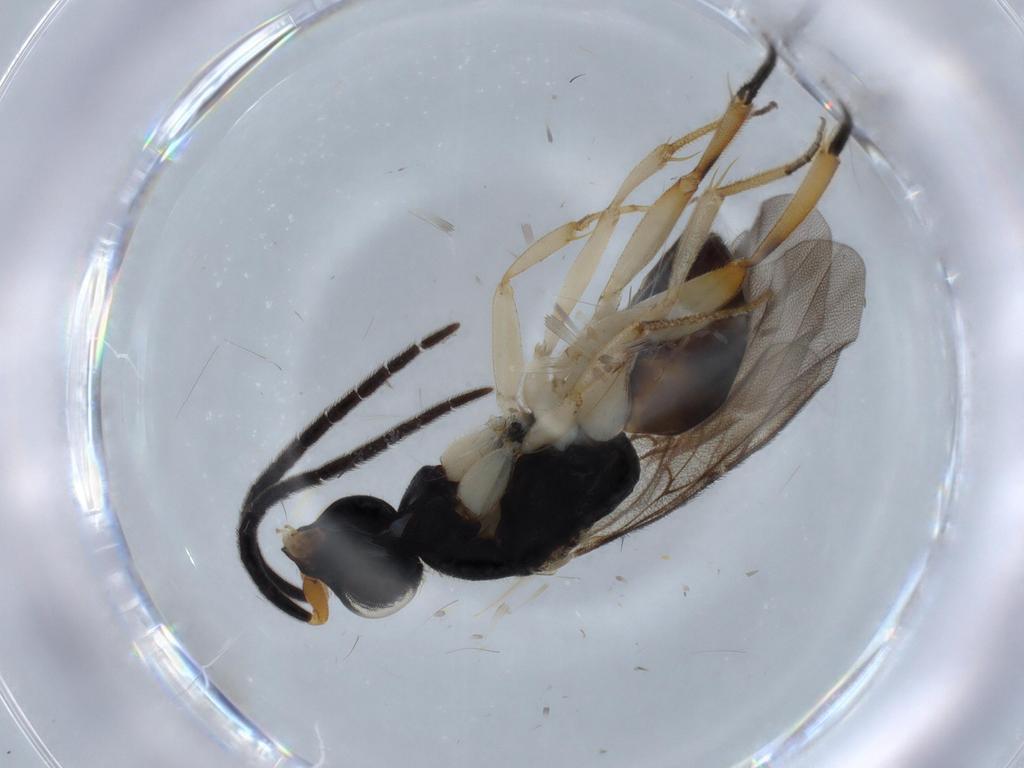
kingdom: Animalia
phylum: Arthropoda
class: Insecta
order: Hymenoptera
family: Chrysididae
